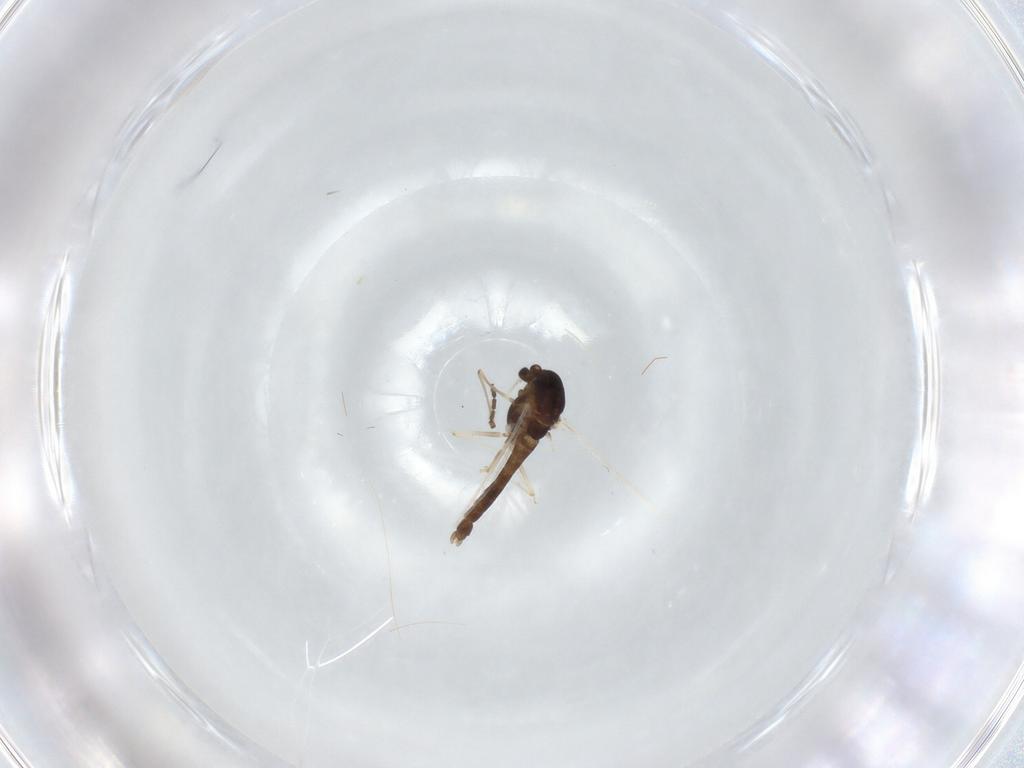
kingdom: Animalia
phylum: Arthropoda
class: Insecta
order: Diptera
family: Chironomidae
